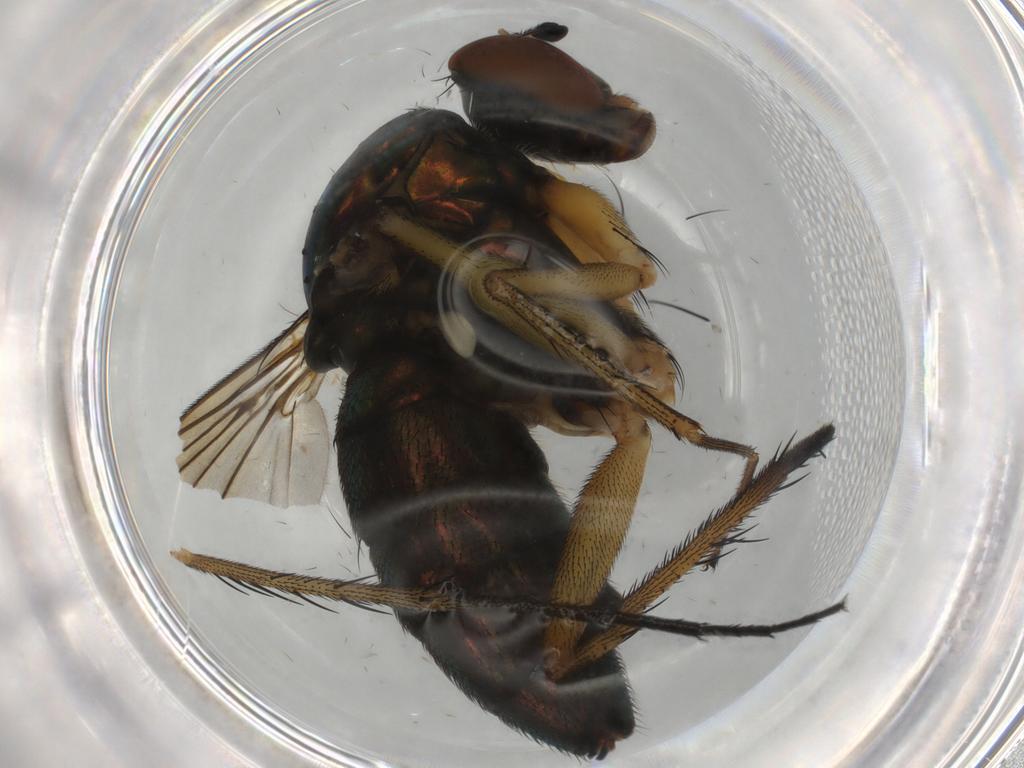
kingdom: Animalia
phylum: Arthropoda
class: Insecta
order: Diptera
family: Dolichopodidae
